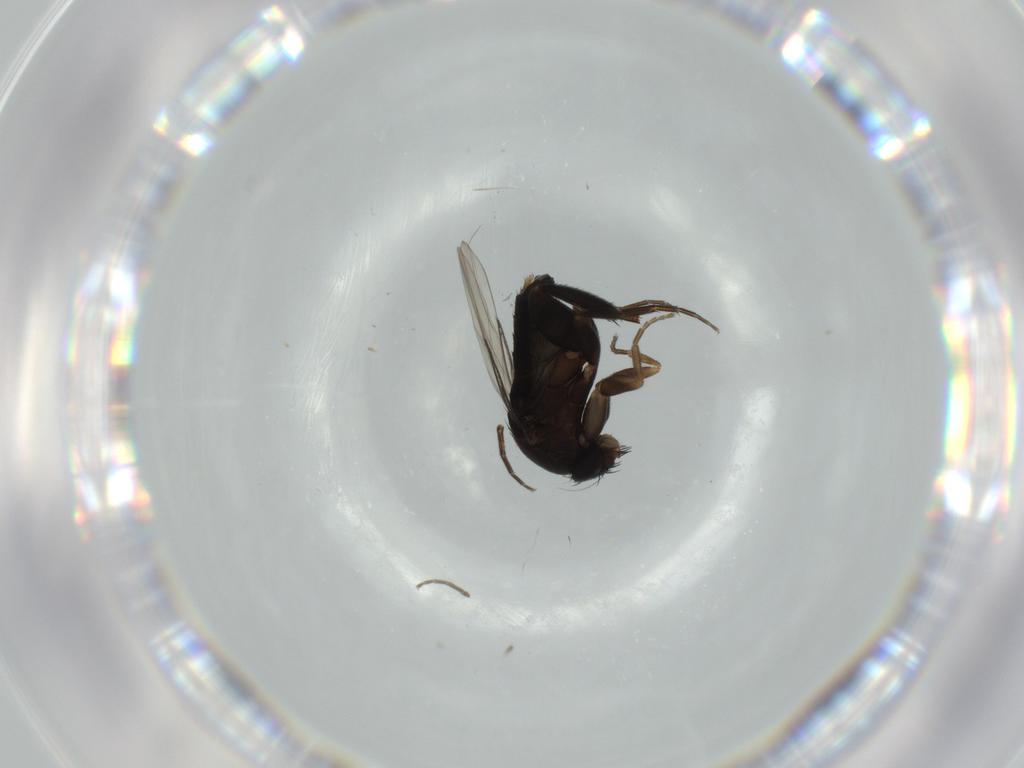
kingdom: Animalia
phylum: Arthropoda
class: Insecta
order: Diptera
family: Phoridae
